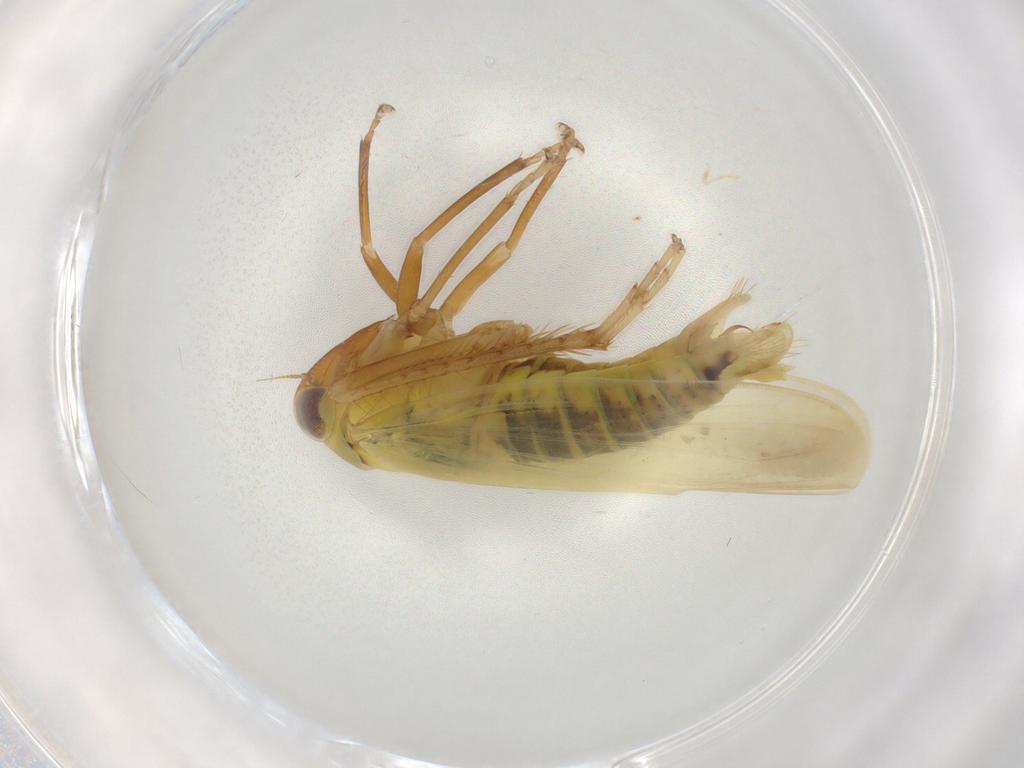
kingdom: Animalia
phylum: Arthropoda
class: Insecta
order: Hemiptera
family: Cicadellidae
